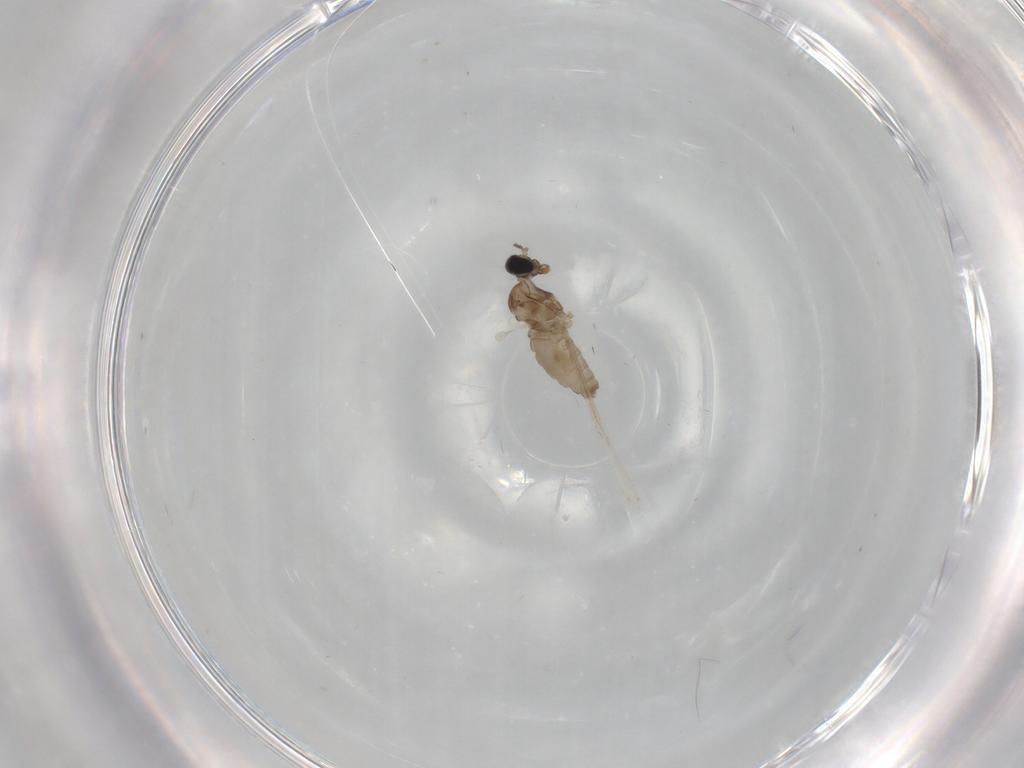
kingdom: Animalia
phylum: Arthropoda
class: Insecta
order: Diptera
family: Cecidomyiidae
